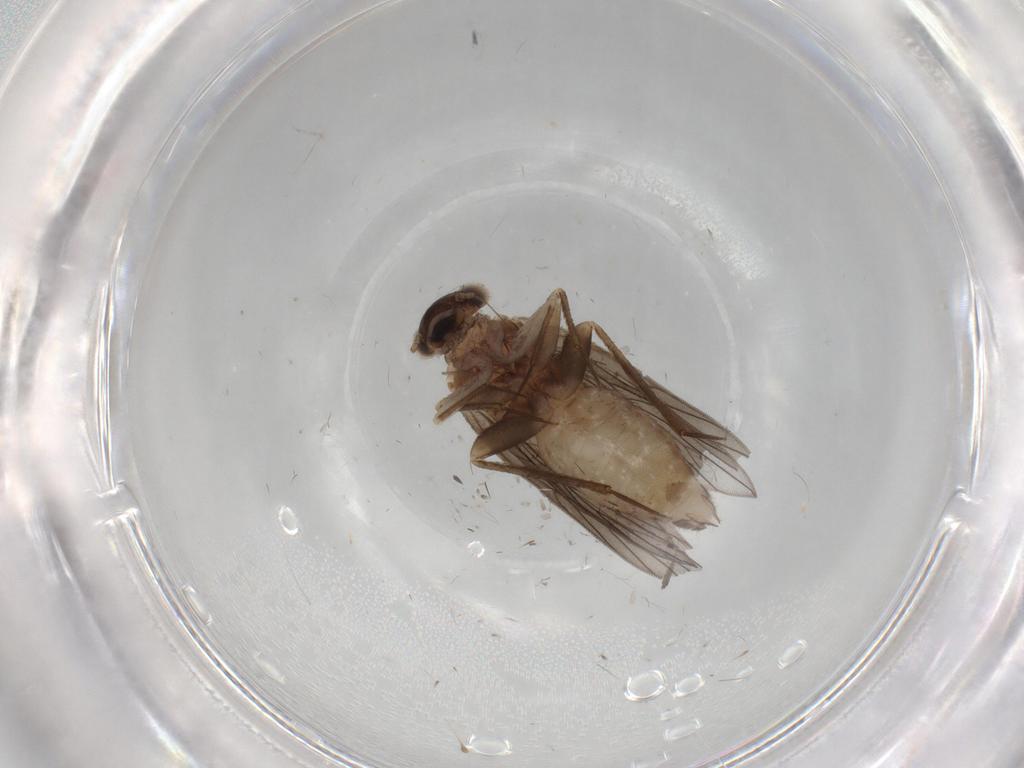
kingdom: Animalia
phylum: Arthropoda
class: Insecta
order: Psocodea
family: Lepidopsocidae
